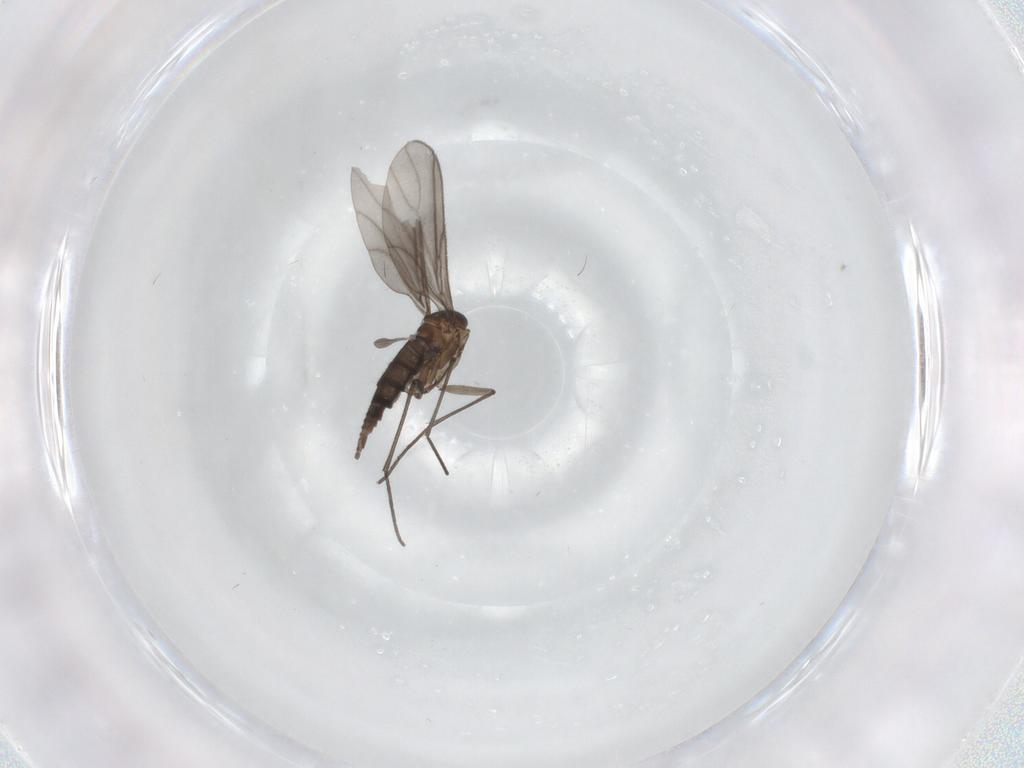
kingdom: Animalia
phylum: Arthropoda
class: Insecta
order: Diptera
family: Sciaridae
